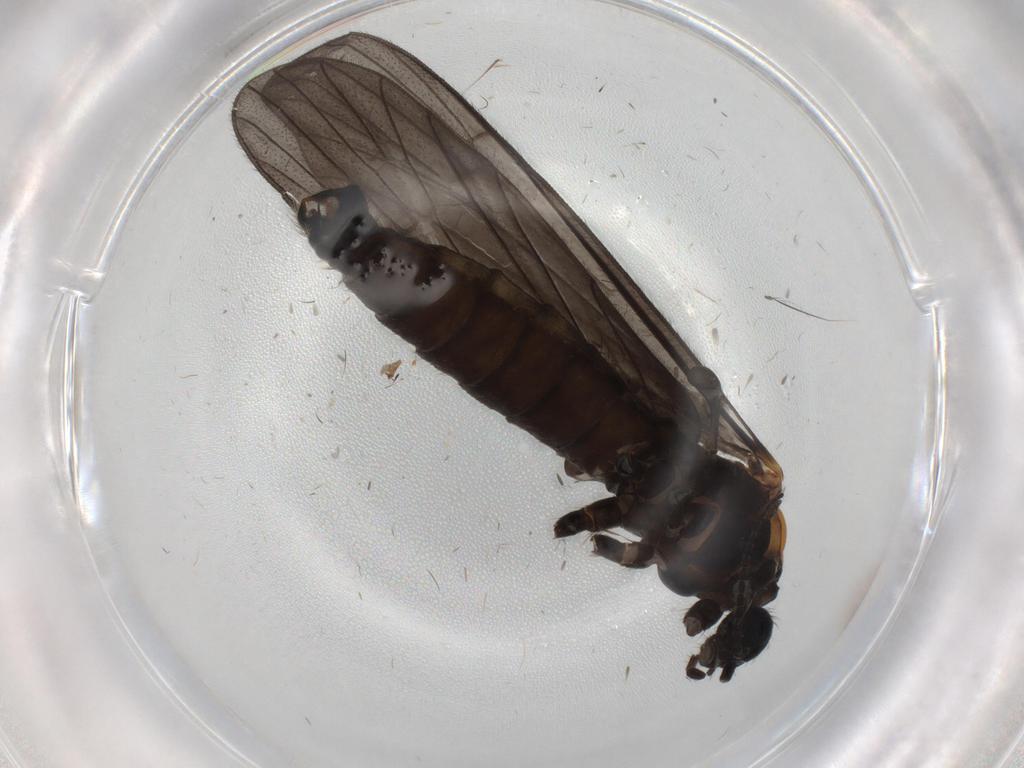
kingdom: Animalia
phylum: Arthropoda
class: Insecta
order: Diptera
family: Limoniidae
